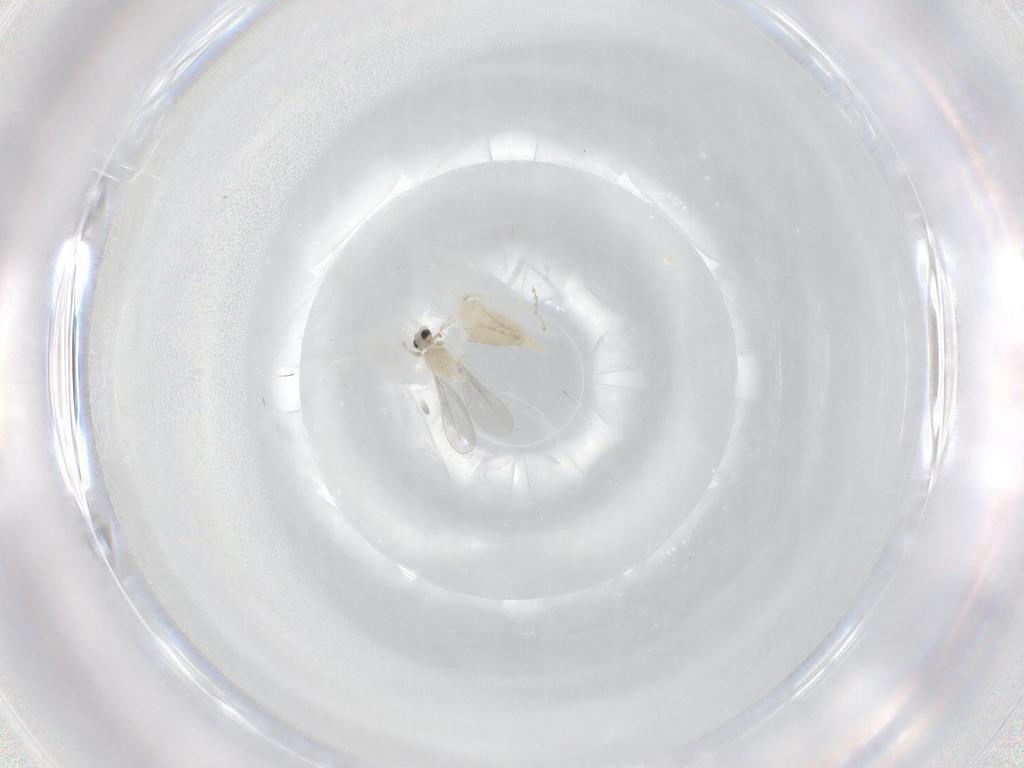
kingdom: Animalia
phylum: Arthropoda
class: Insecta
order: Diptera
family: Cecidomyiidae
